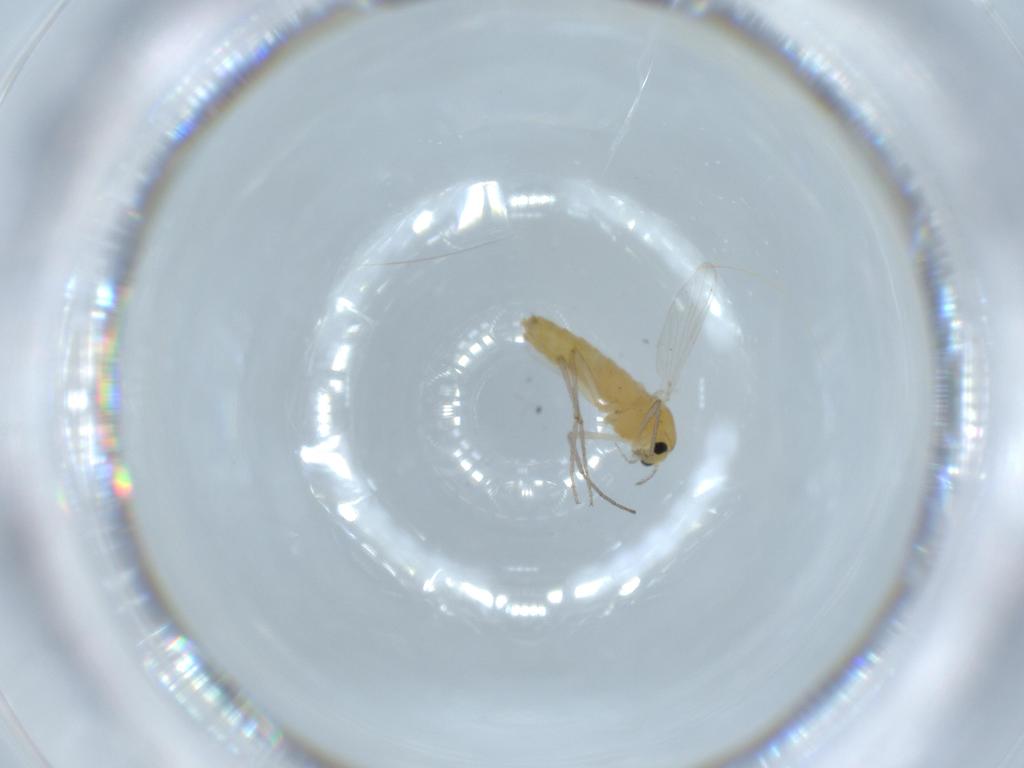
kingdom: Animalia
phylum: Arthropoda
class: Insecta
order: Diptera
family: Chironomidae
